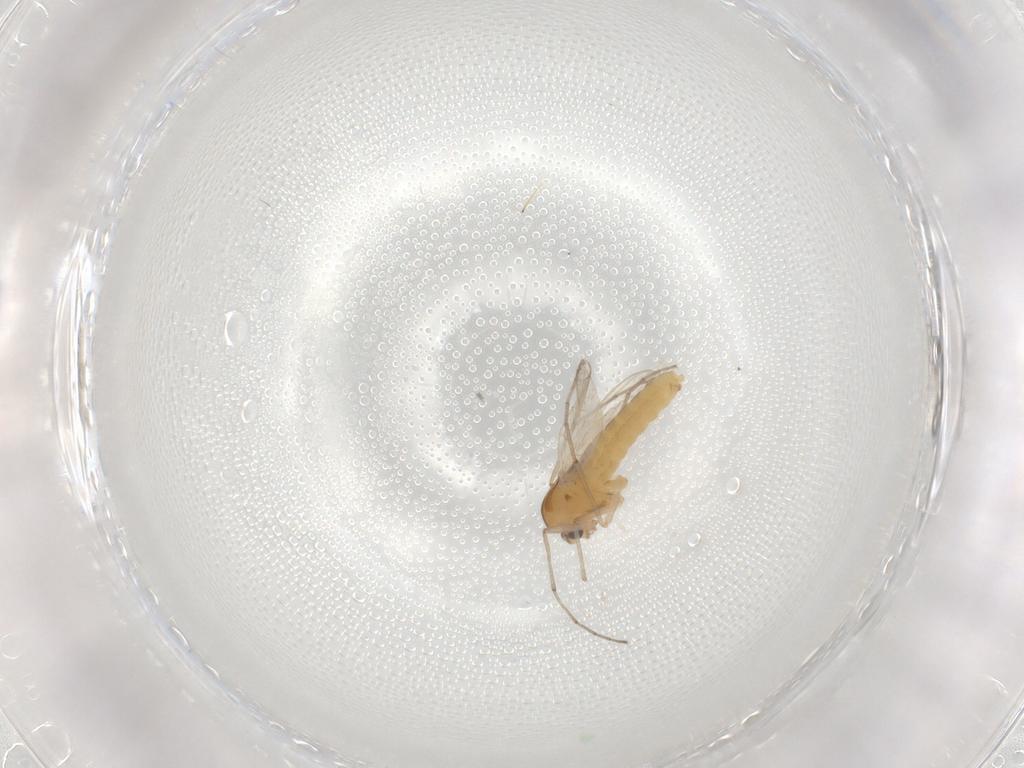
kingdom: Animalia
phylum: Arthropoda
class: Insecta
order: Diptera
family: Chironomidae
